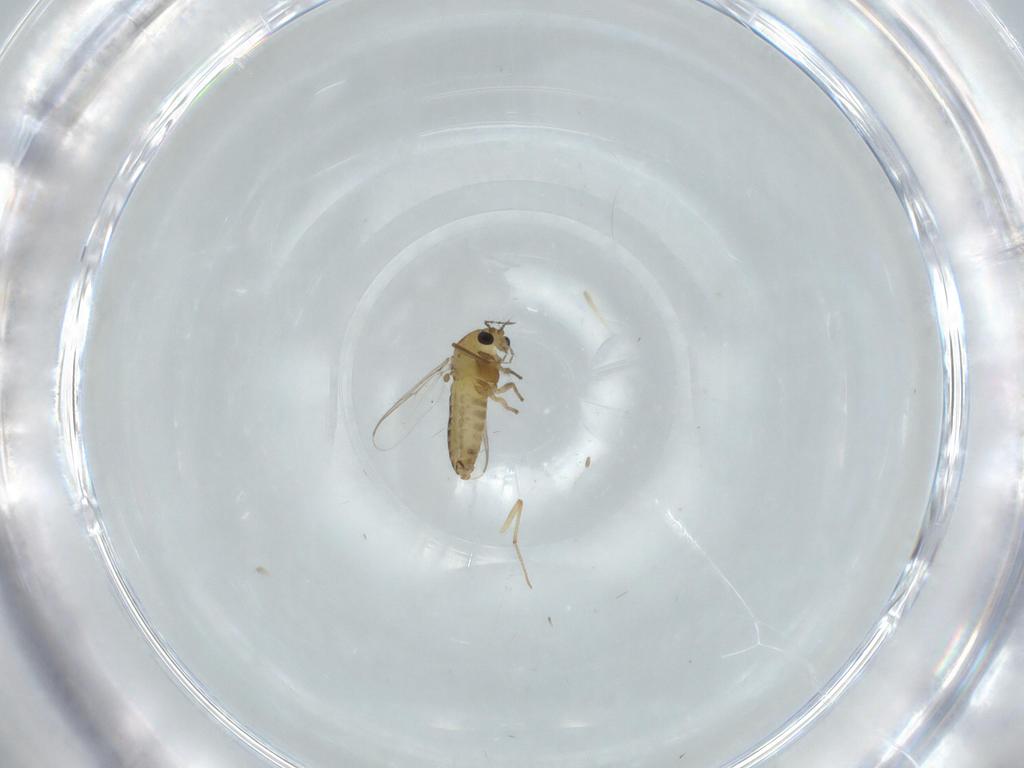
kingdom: Animalia
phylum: Arthropoda
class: Insecta
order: Diptera
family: Chironomidae
